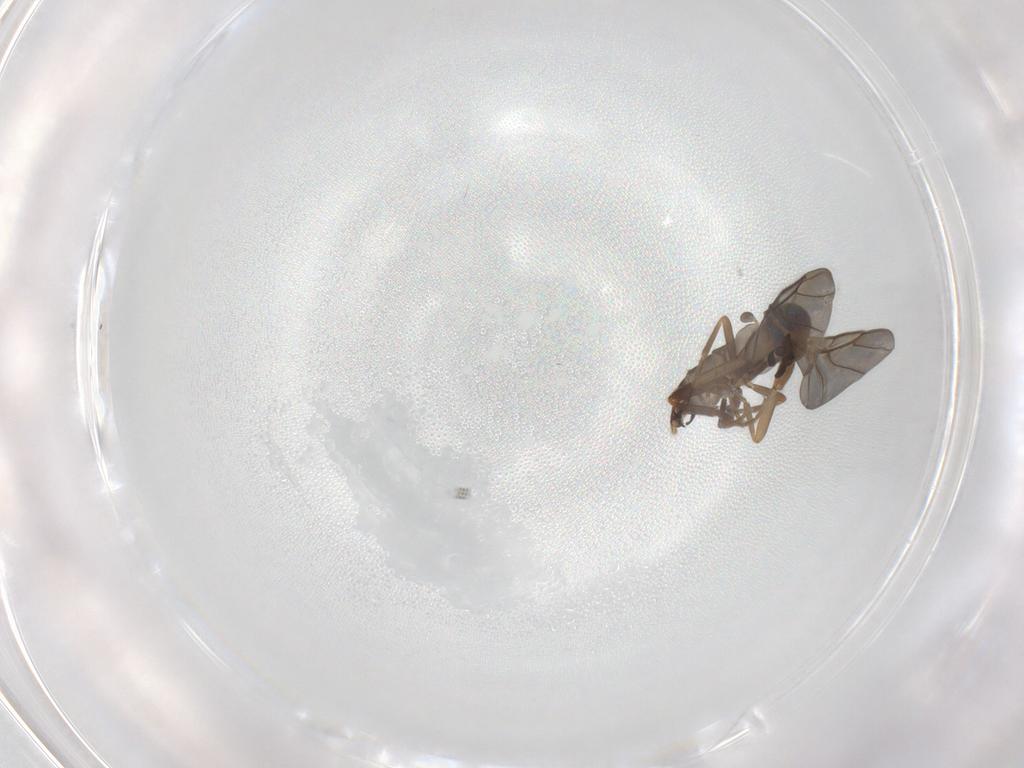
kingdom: Animalia
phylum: Arthropoda
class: Insecta
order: Diptera
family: Limoniidae
